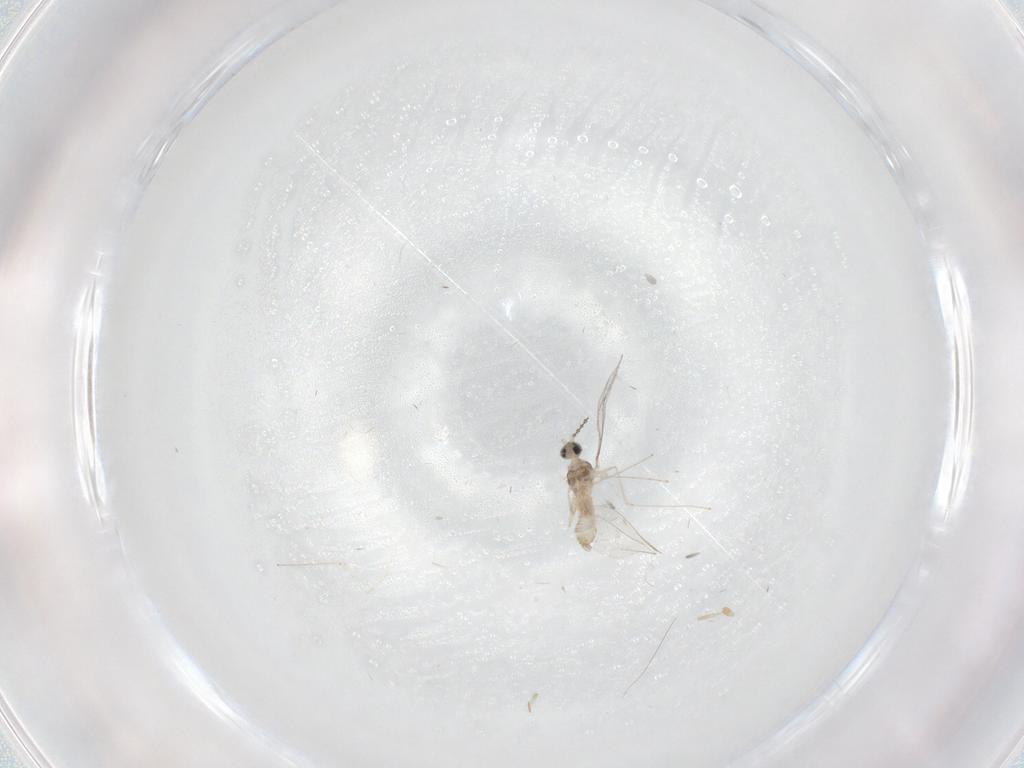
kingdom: Animalia
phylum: Arthropoda
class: Insecta
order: Diptera
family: Cecidomyiidae
